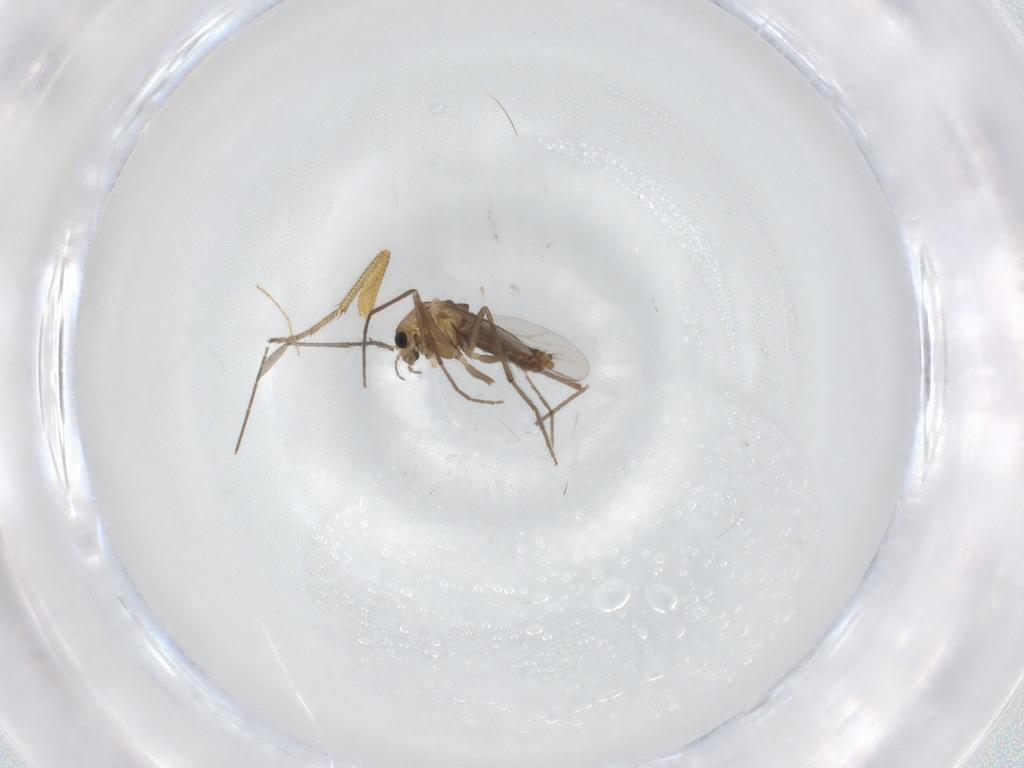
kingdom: Animalia
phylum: Arthropoda
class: Insecta
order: Diptera
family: Chironomidae
